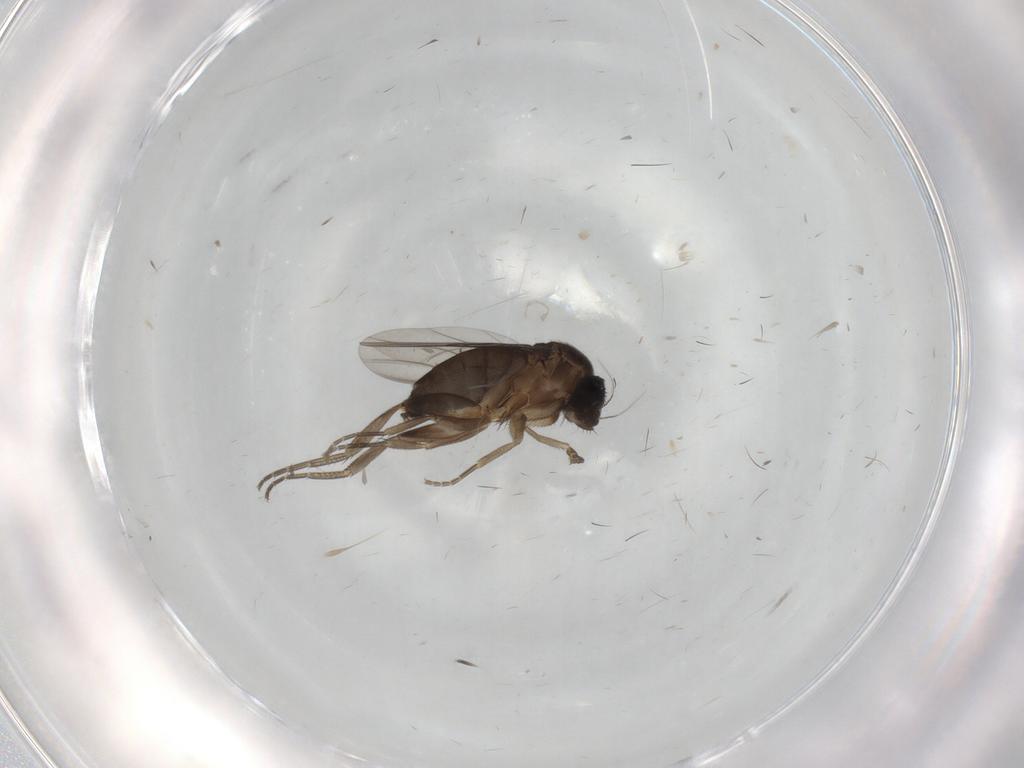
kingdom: Animalia
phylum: Arthropoda
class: Insecta
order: Diptera
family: Phoridae
